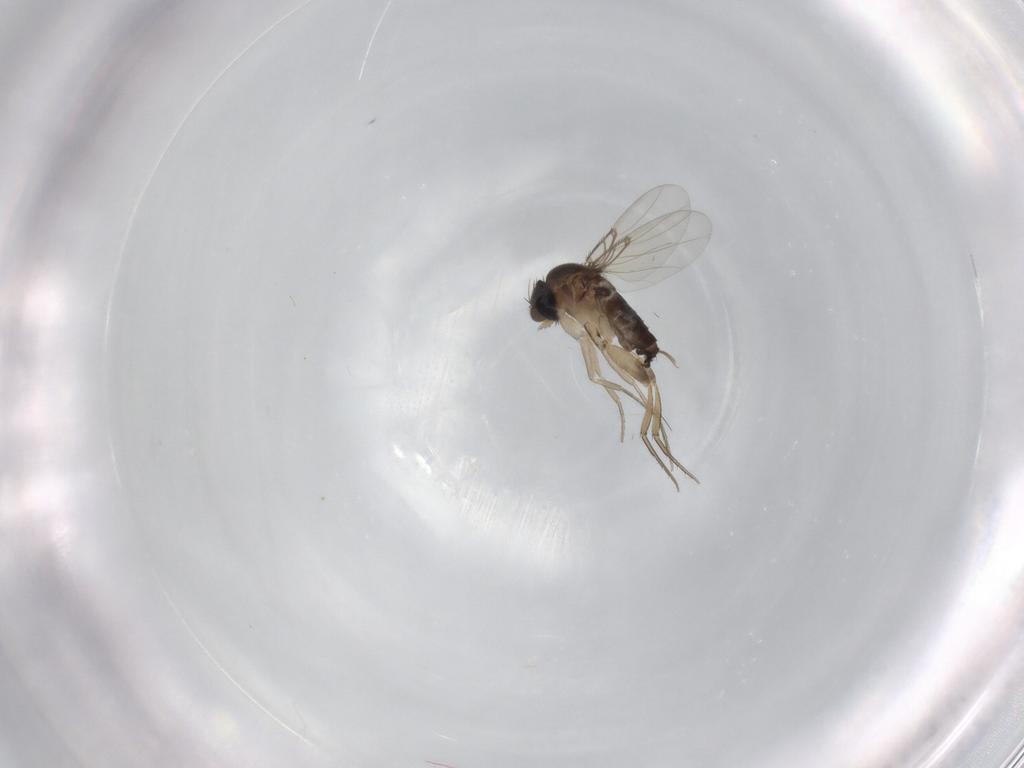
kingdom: Animalia
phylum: Arthropoda
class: Insecta
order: Diptera
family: Phoridae
